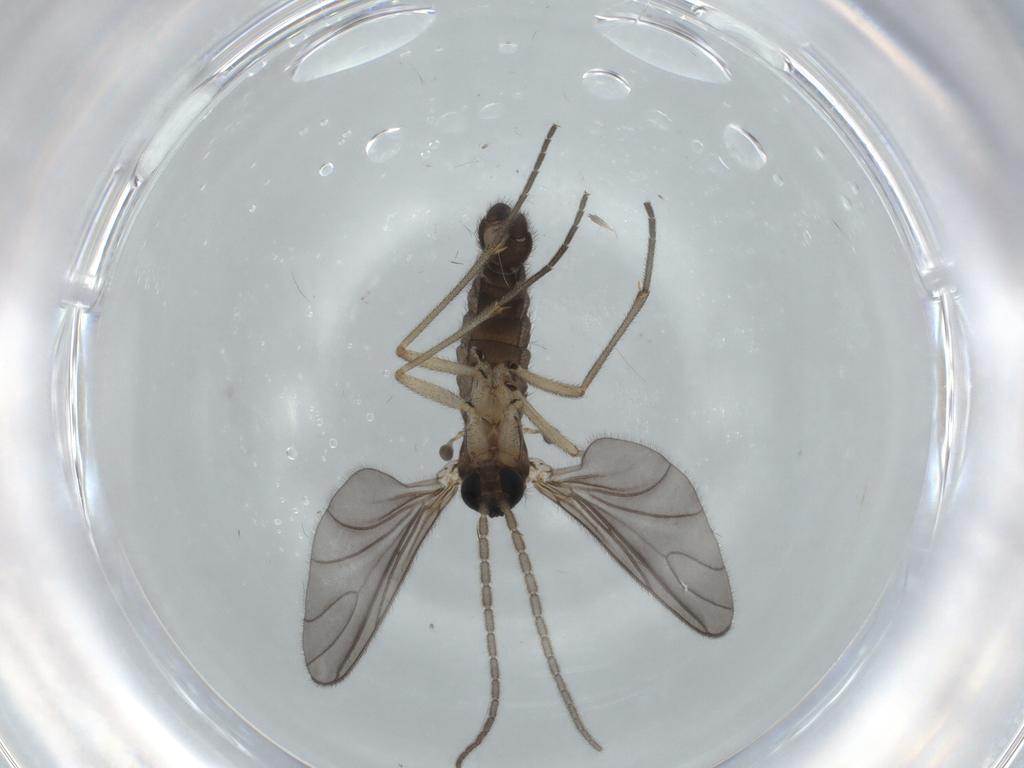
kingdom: Animalia
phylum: Arthropoda
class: Insecta
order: Diptera
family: Sciaridae
